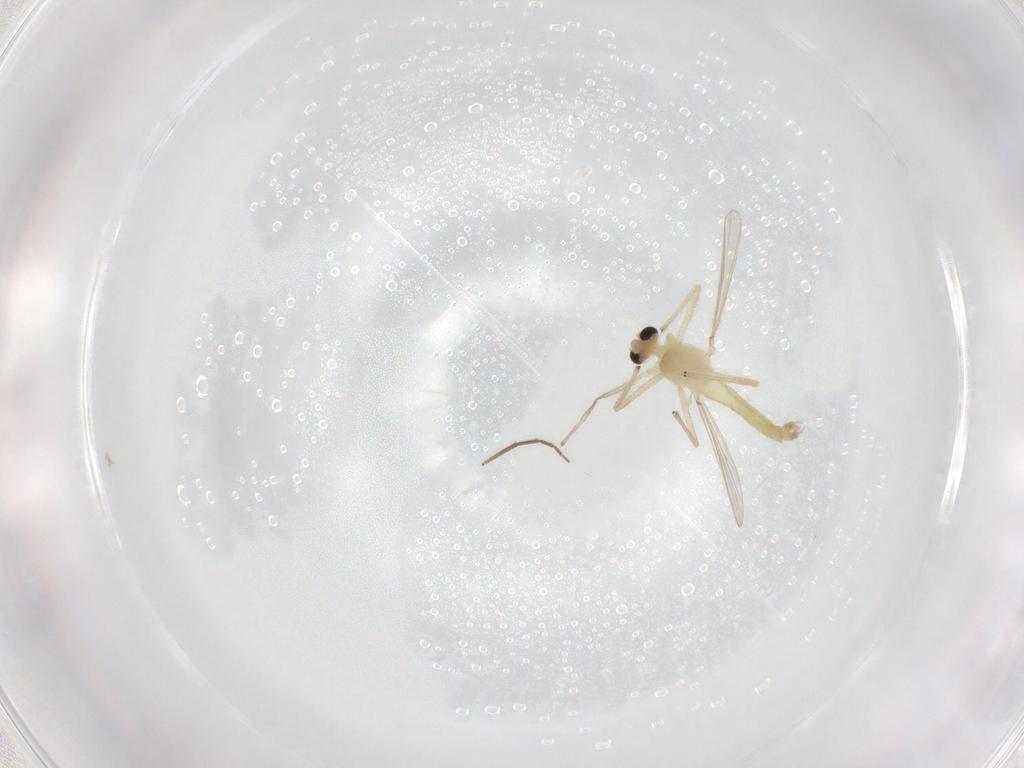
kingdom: Animalia
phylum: Arthropoda
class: Insecta
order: Diptera
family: Chironomidae
